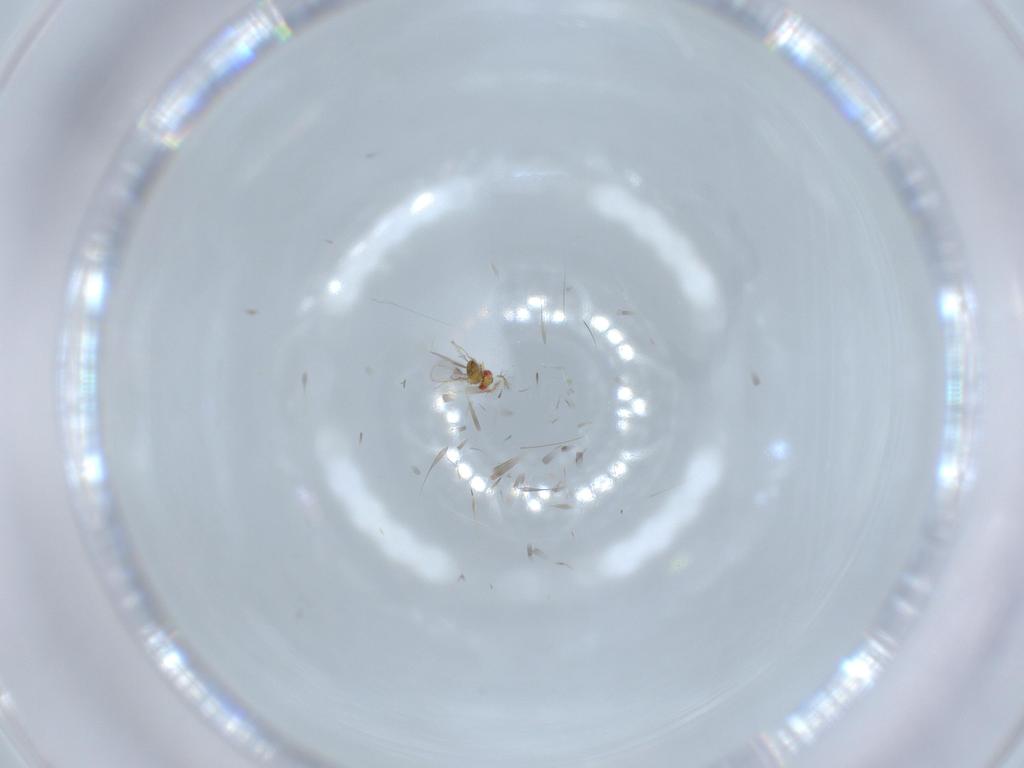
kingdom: Animalia
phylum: Arthropoda
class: Insecta
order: Hymenoptera
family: Trichogrammatidae
